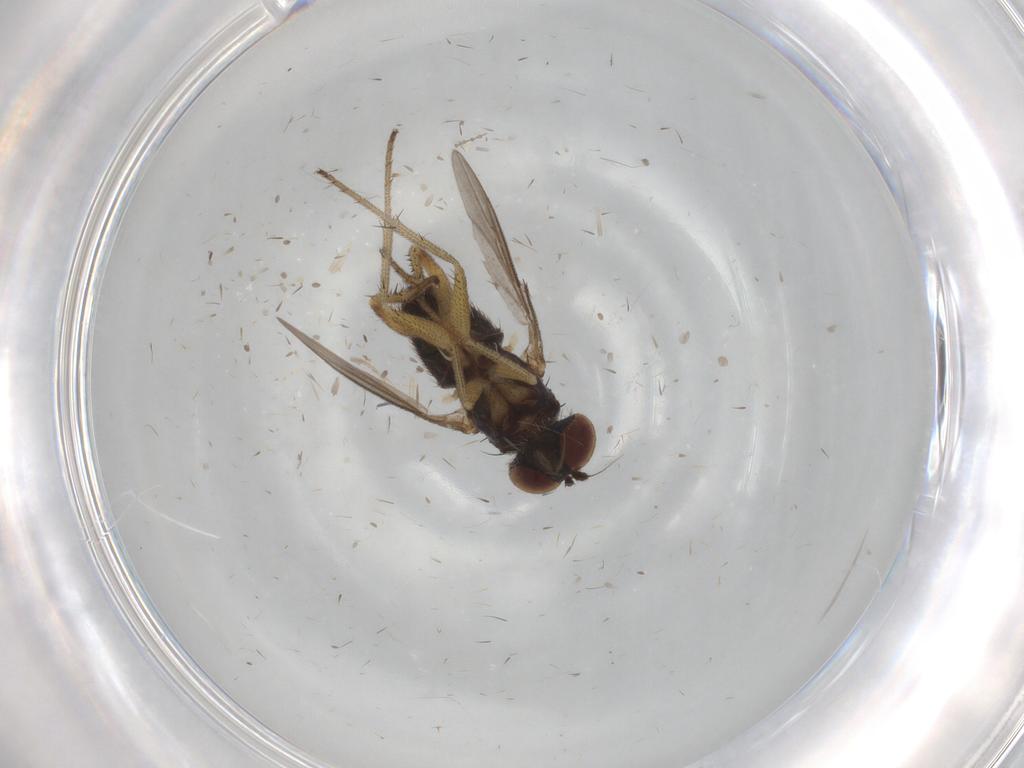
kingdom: Animalia
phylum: Arthropoda
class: Insecta
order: Diptera
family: Cecidomyiidae
